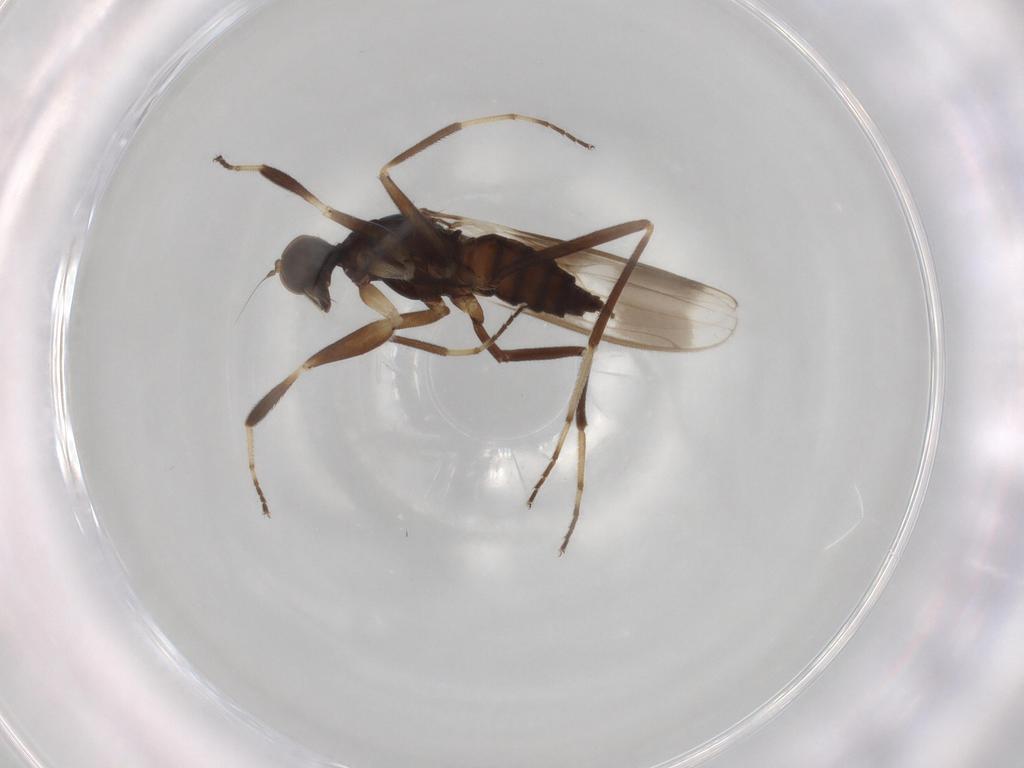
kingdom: Animalia
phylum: Arthropoda
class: Insecta
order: Diptera
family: Hybotidae
